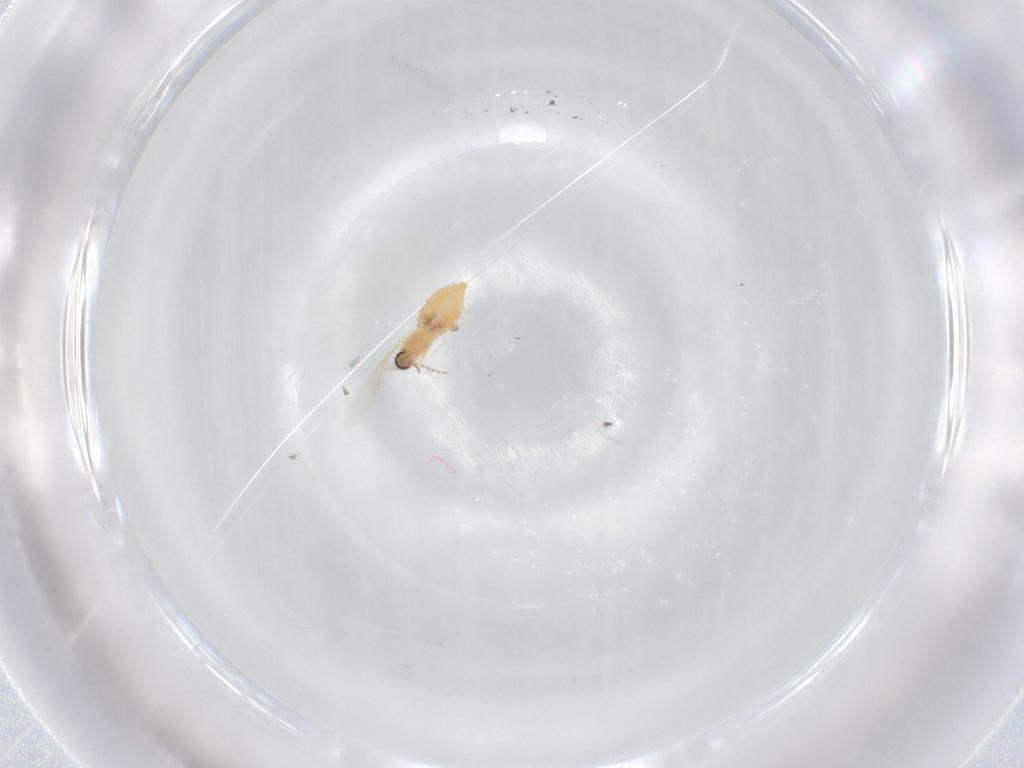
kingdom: Animalia
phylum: Arthropoda
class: Insecta
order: Diptera
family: Cecidomyiidae
